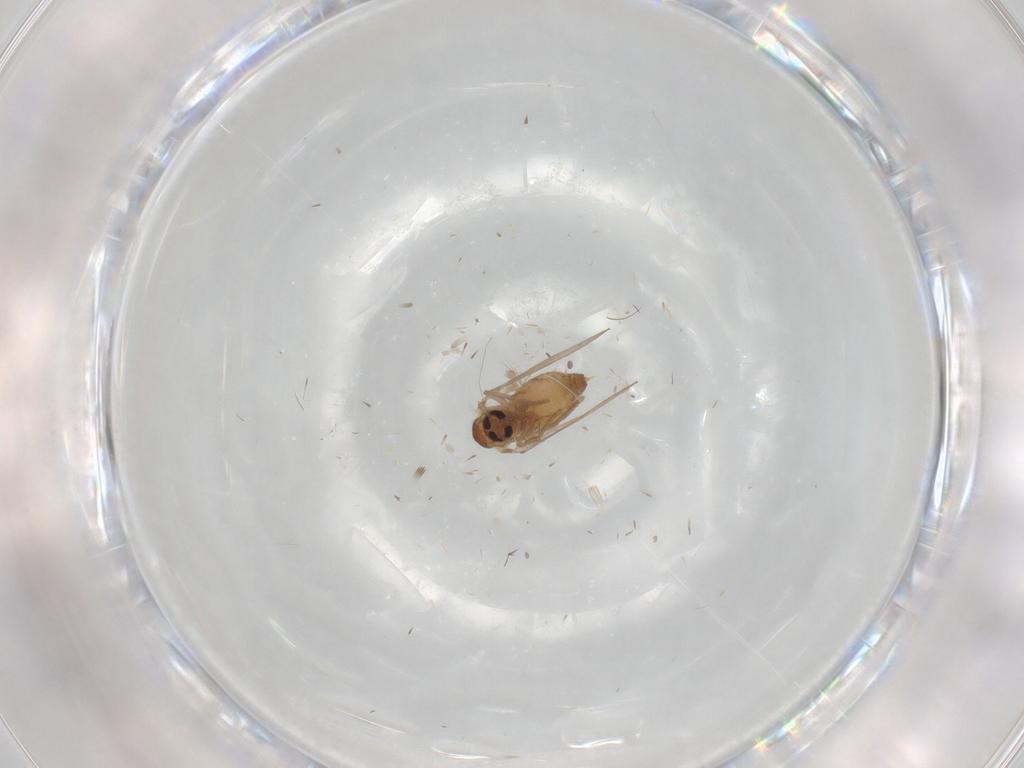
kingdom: Animalia
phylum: Arthropoda
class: Insecta
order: Diptera
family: Psychodidae
